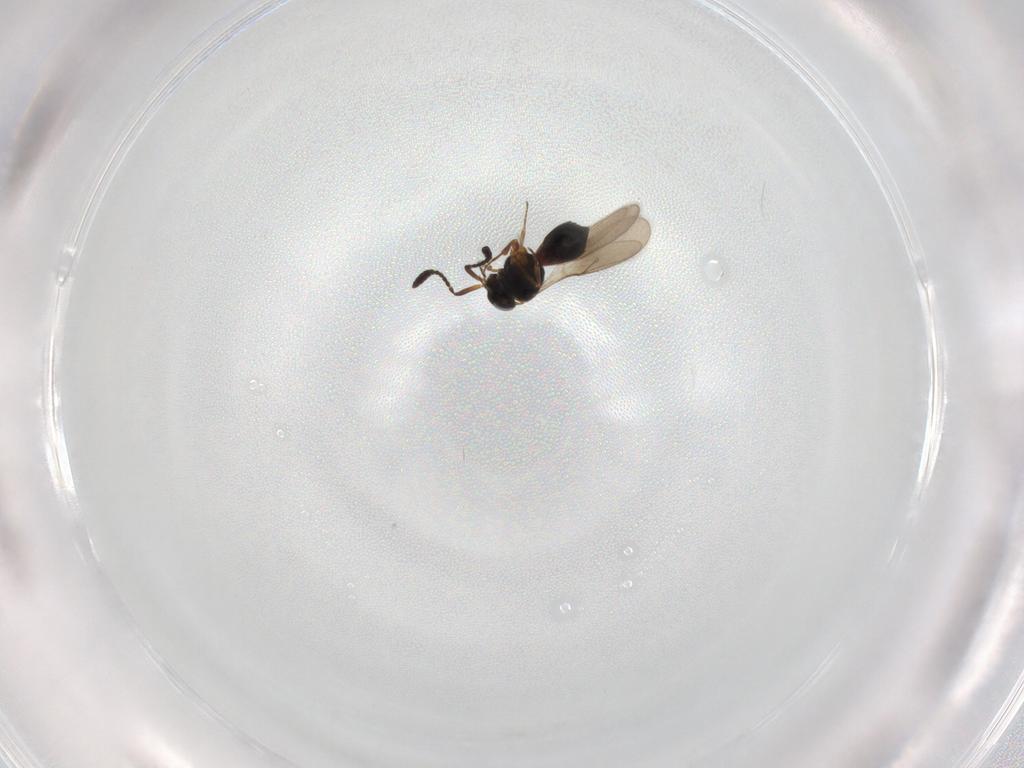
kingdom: Animalia
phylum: Arthropoda
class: Insecta
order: Hymenoptera
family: Scelionidae
